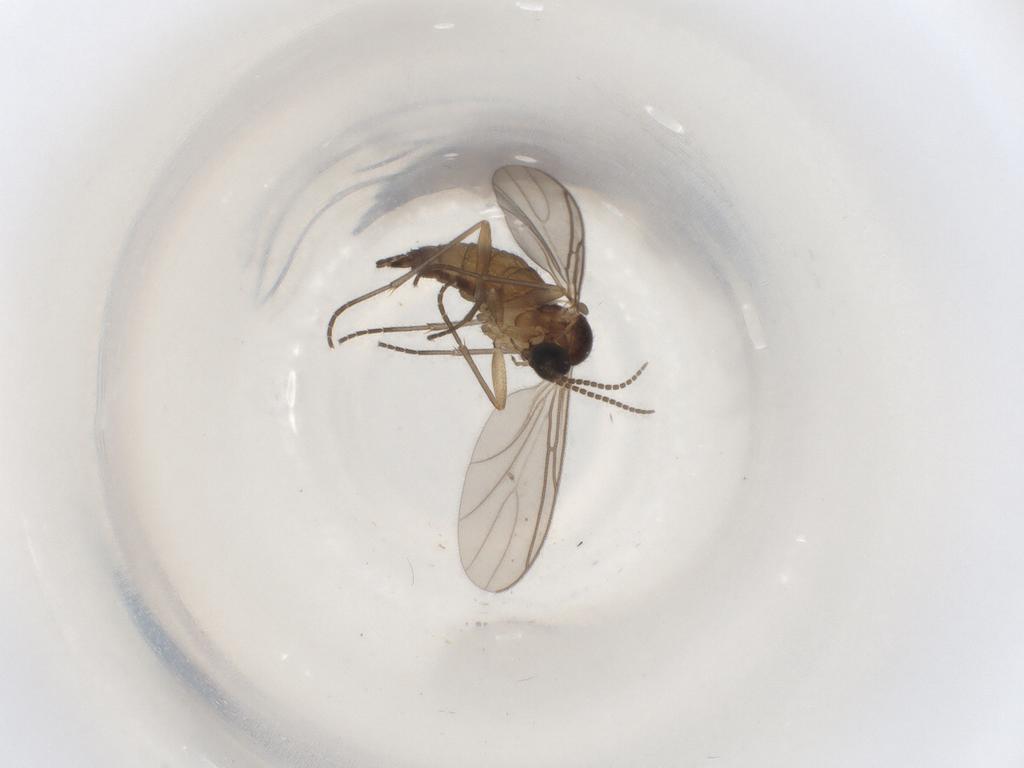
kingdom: Animalia
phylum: Arthropoda
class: Insecta
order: Diptera
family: Sciaridae
